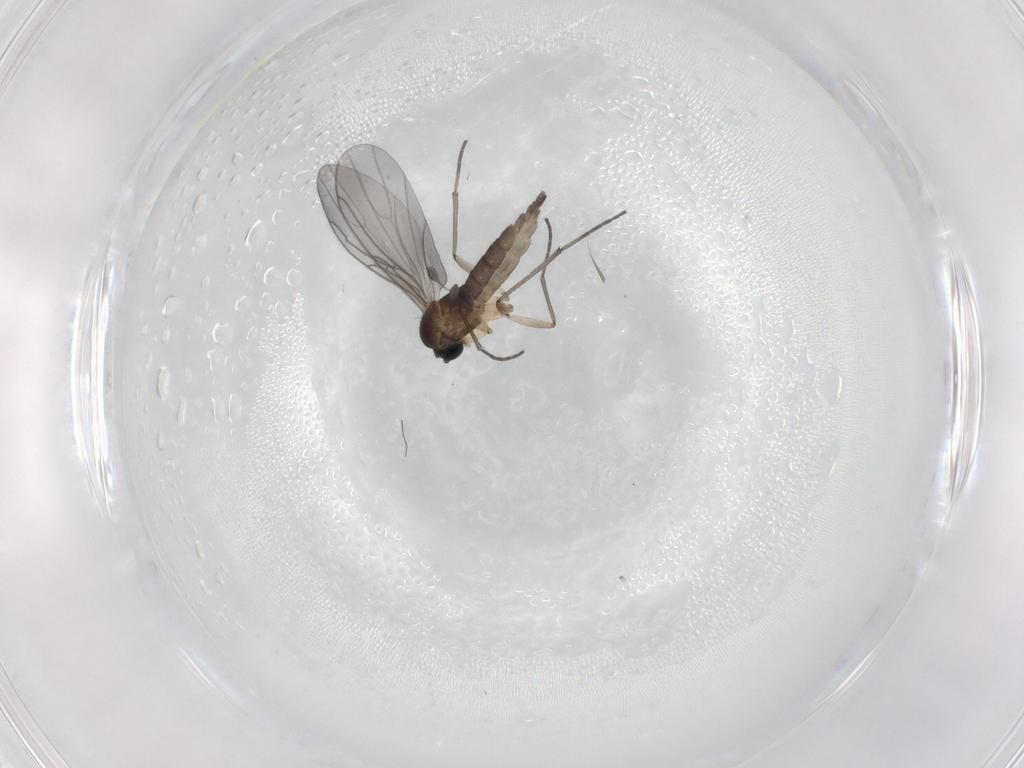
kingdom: Animalia
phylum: Arthropoda
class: Insecta
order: Diptera
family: Sciaridae
